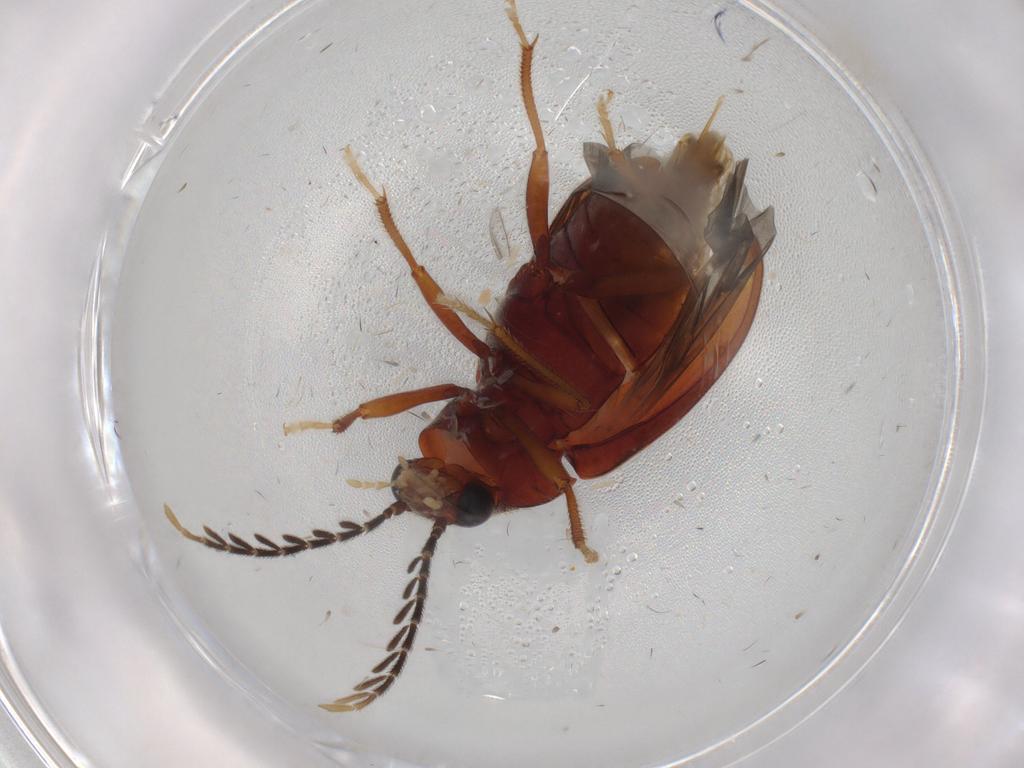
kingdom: Animalia
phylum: Arthropoda
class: Insecta
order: Coleoptera
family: Ptilodactylidae
